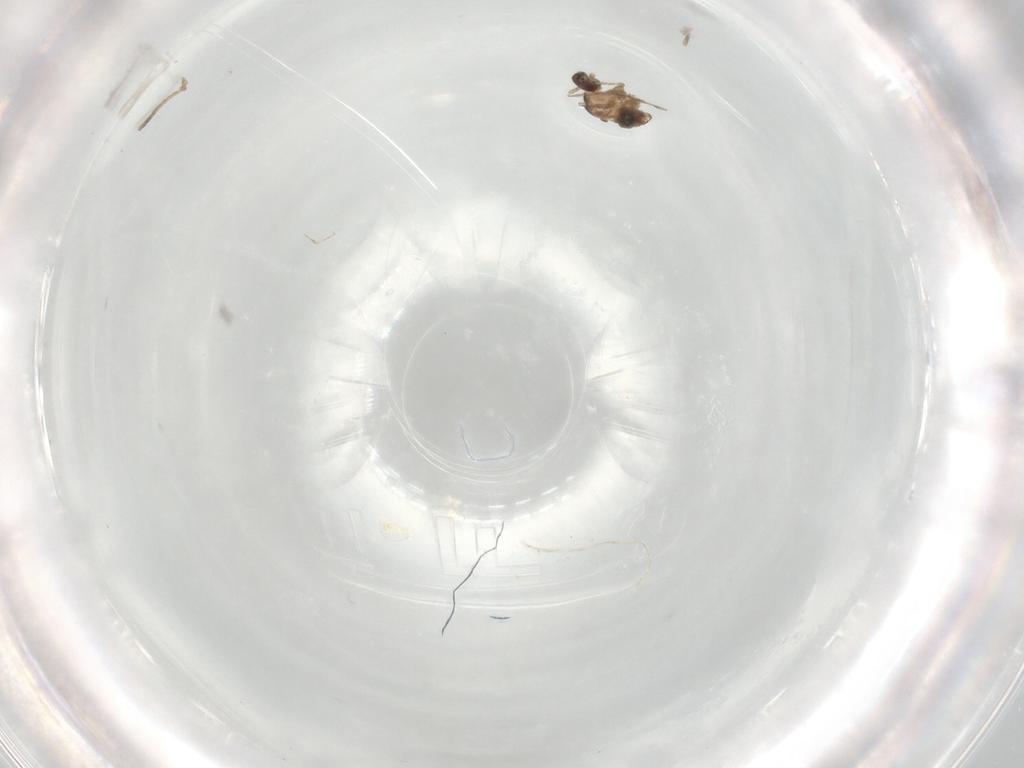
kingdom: Animalia
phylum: Arthropoda
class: Insecta
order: Diptera
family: Cecidomyiidae
